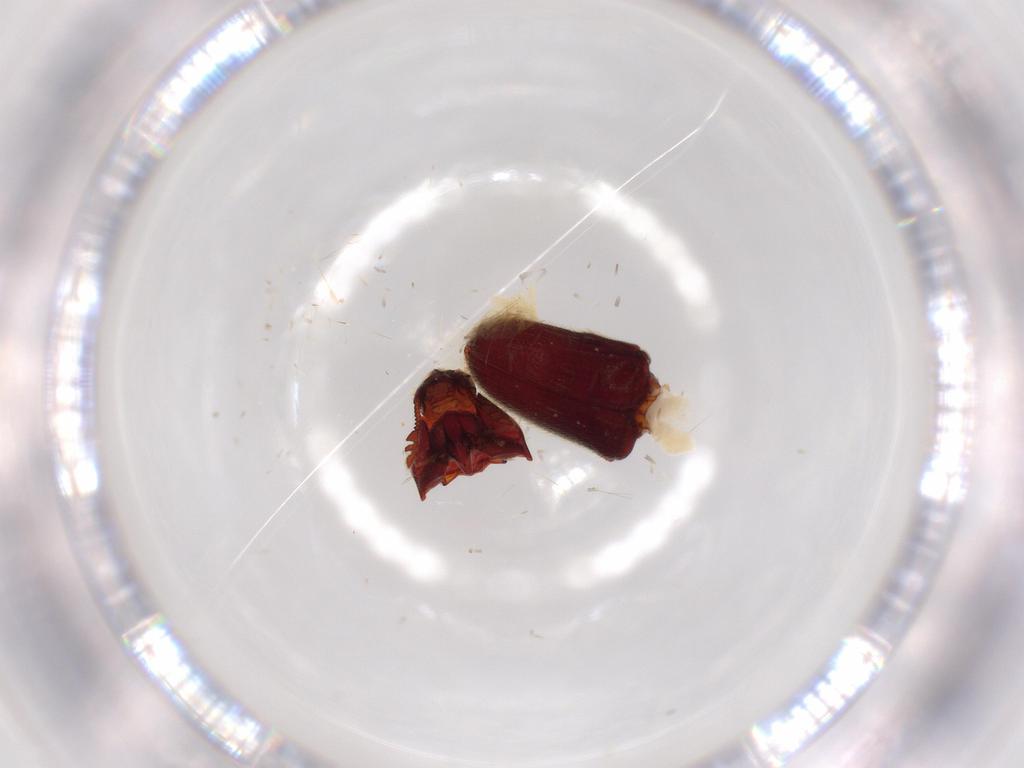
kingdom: Animalia
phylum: Arthropoda
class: Insecta
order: Coleoptera
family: Throscidae
